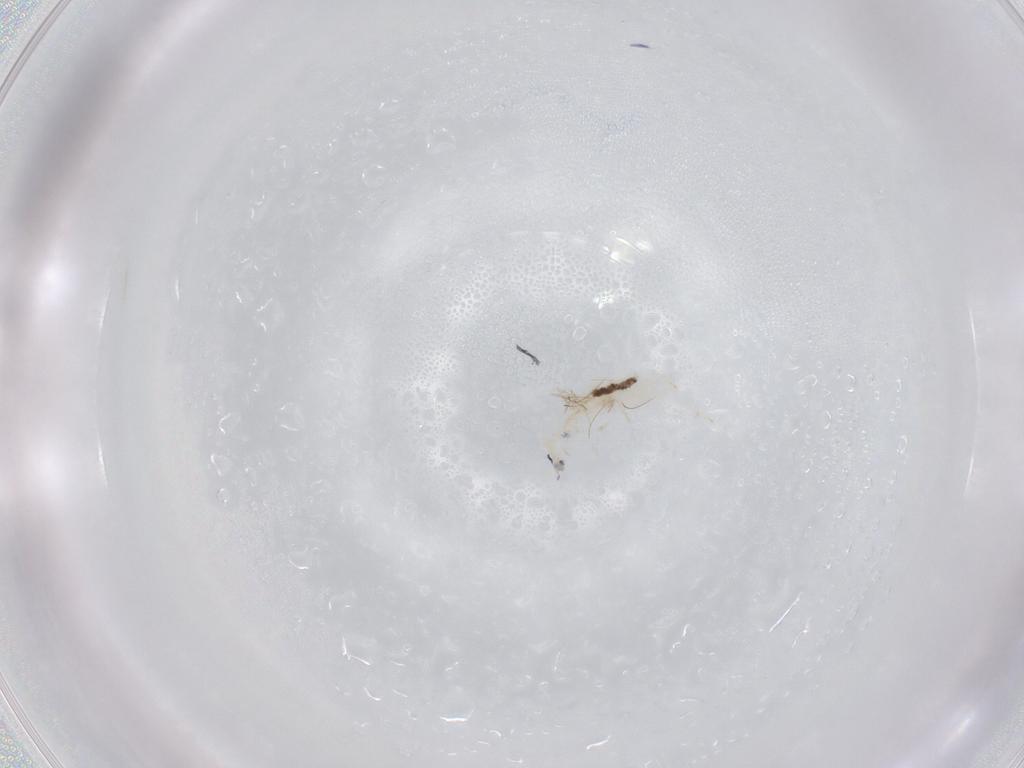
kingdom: Animalia
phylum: Arthropoda
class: Collembola
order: Entomobryomorpha
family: Entomobryidae
